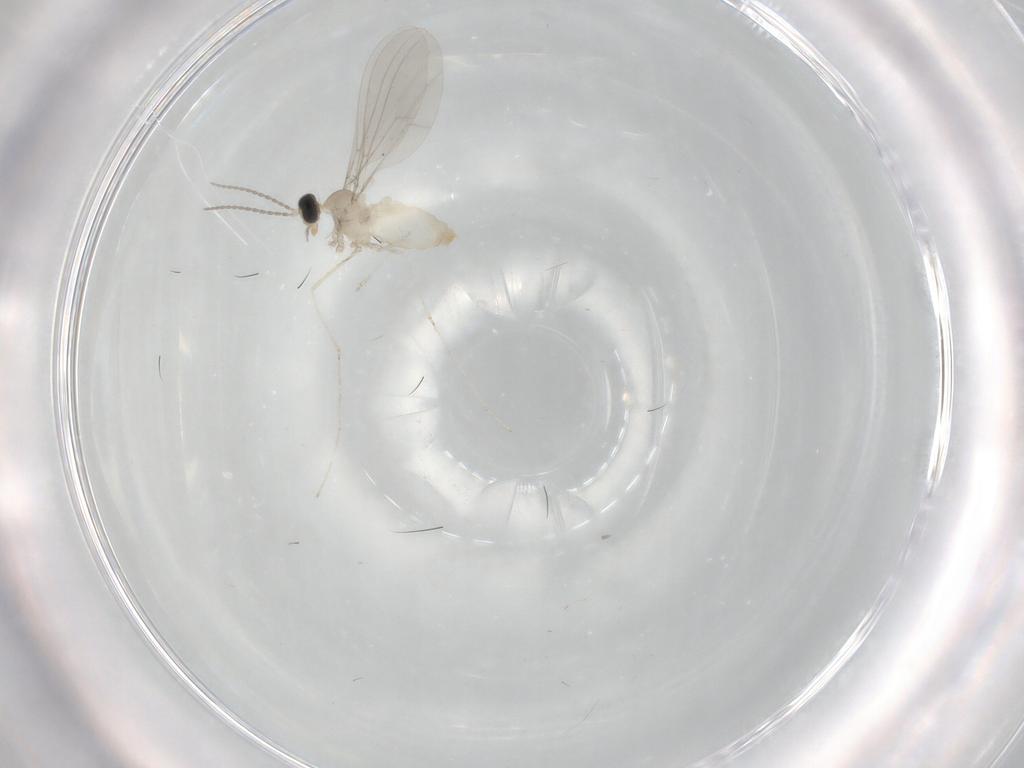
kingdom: Animalia
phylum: Arthropoda
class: Insecta
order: Diptera
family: Cecidomyiidae
